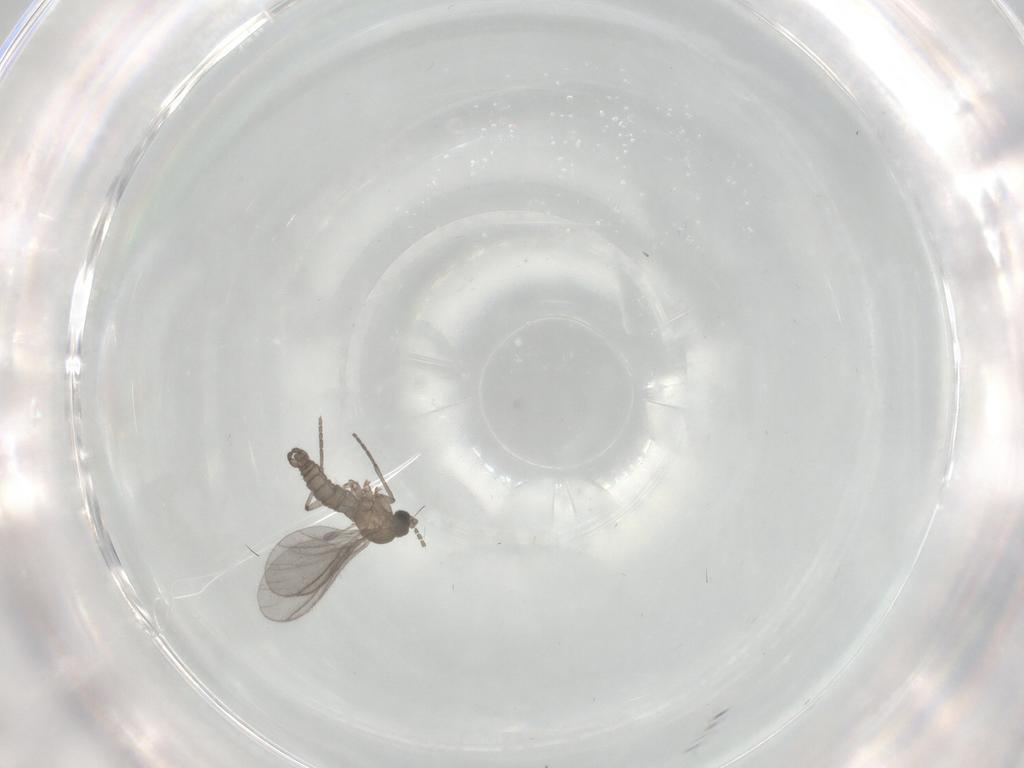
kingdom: Animalia
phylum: Arthropoda
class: Insecta
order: Diptera
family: Sciaridae
